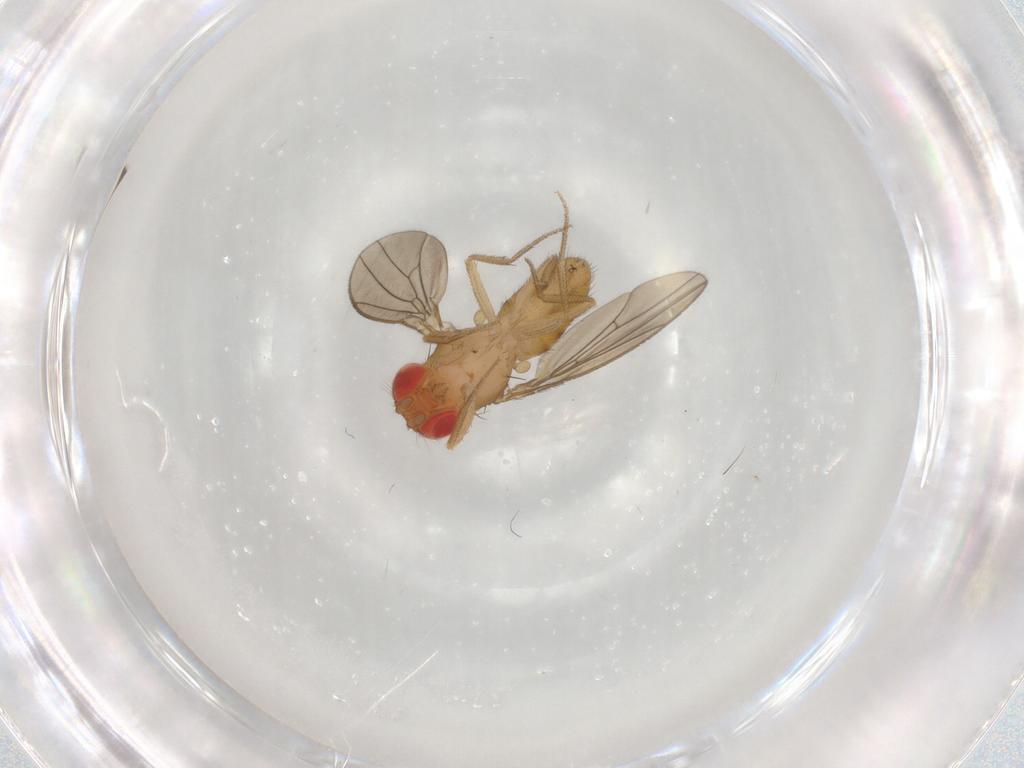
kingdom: Animalia
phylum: Arthropoda
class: Insecta
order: Diptera
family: Drosophilidae
